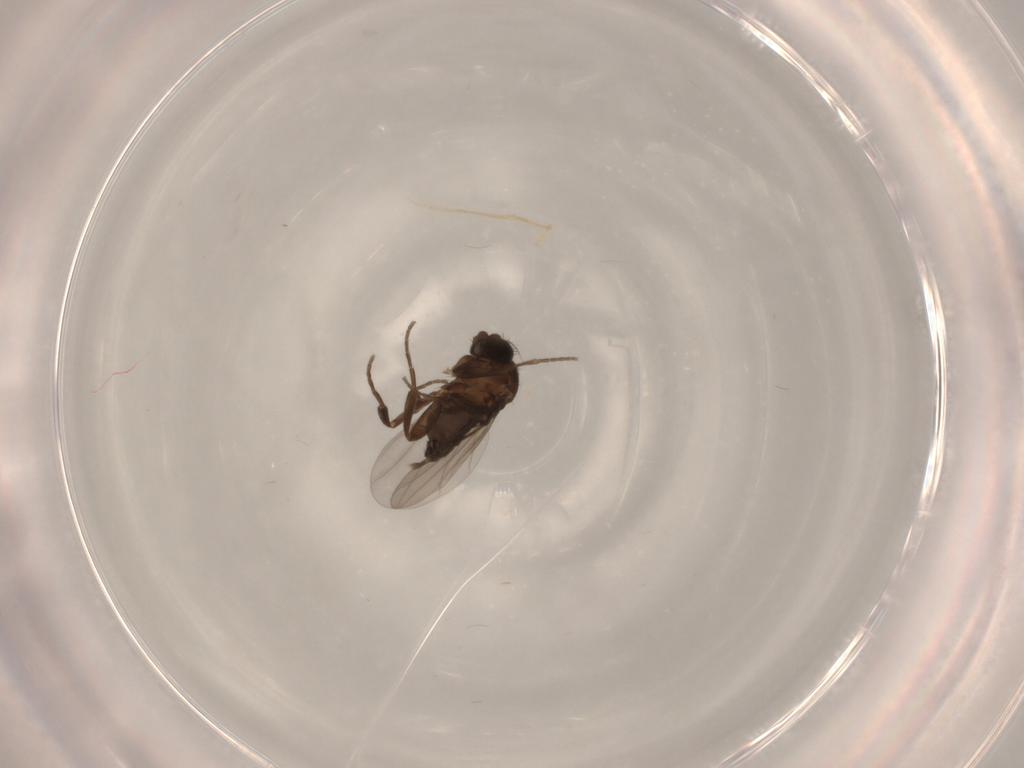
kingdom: Animalia
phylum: Arthropoda
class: Insecta
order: Diptera
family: Phoridae
